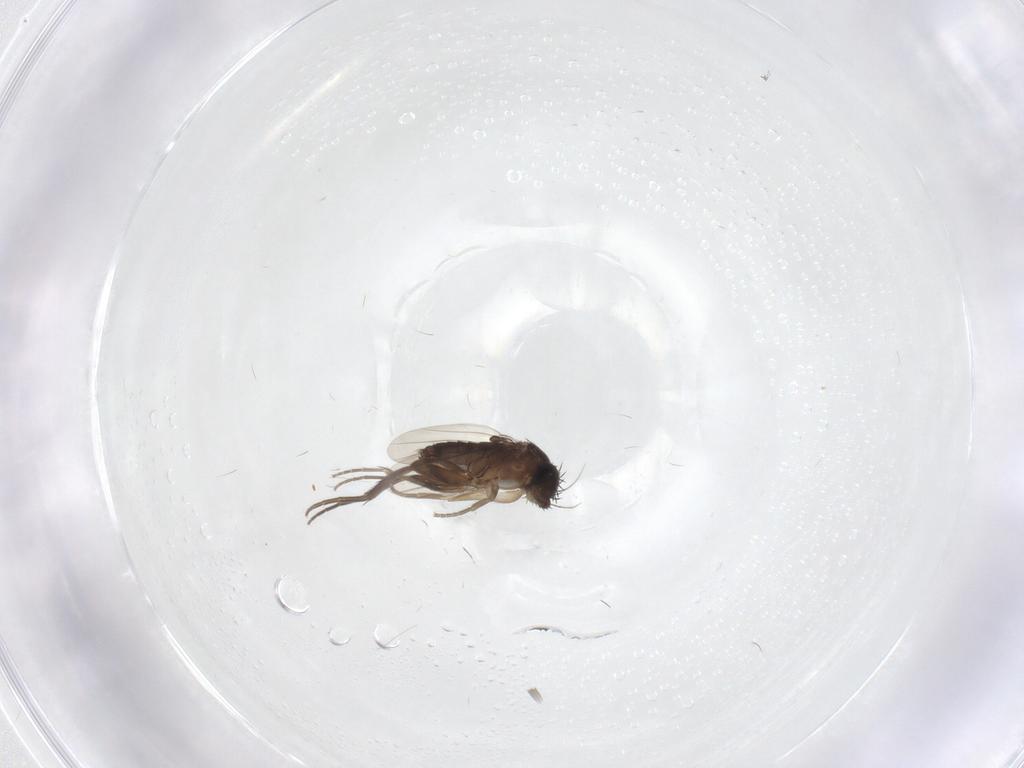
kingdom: Animalia
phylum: Arthropoda
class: Insecta
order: Diptera
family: Phoridae
